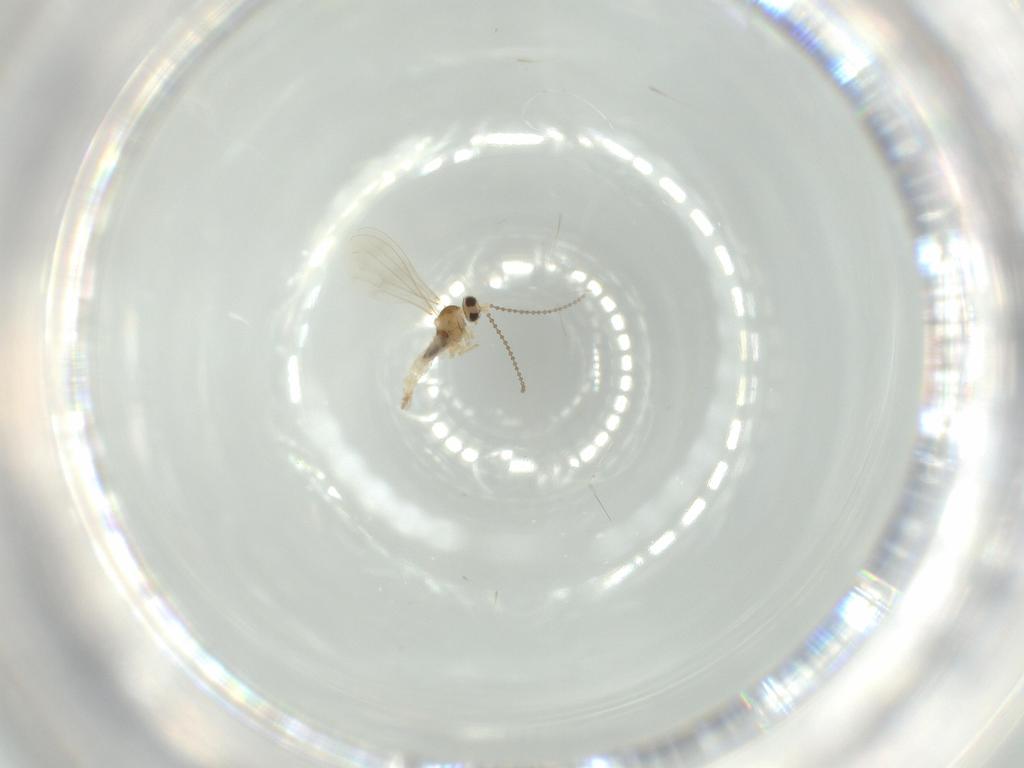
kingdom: Animalia
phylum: Arthropoda
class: Insecta
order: Diptera
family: Cecidomyiidae
